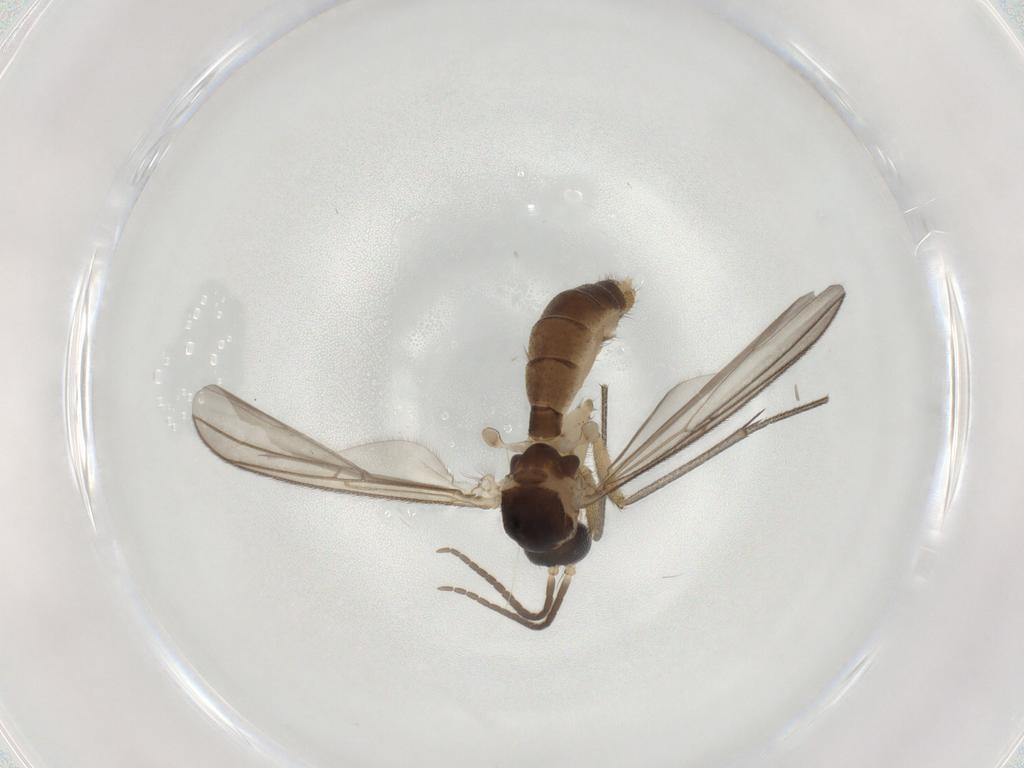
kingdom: Animalia
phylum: Arthropoda
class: Insecta
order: Diptera
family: Mycetophilidae
